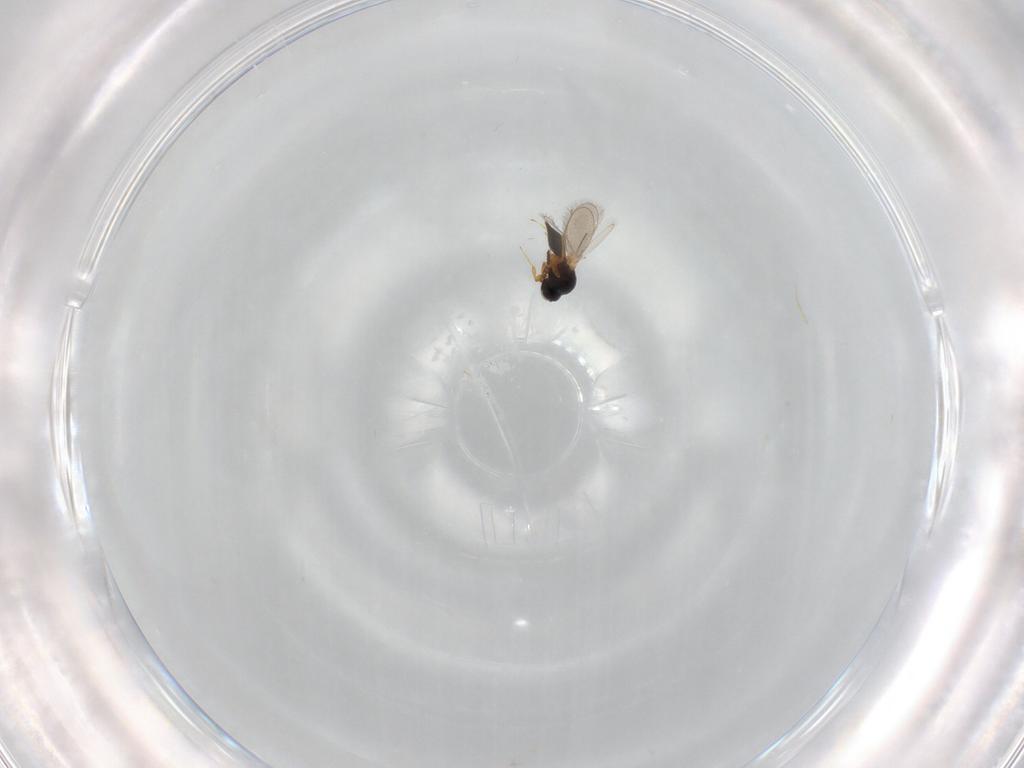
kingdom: Animalia
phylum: Arthropoda
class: Insecta
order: Hymenoptera
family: Platygastridae
